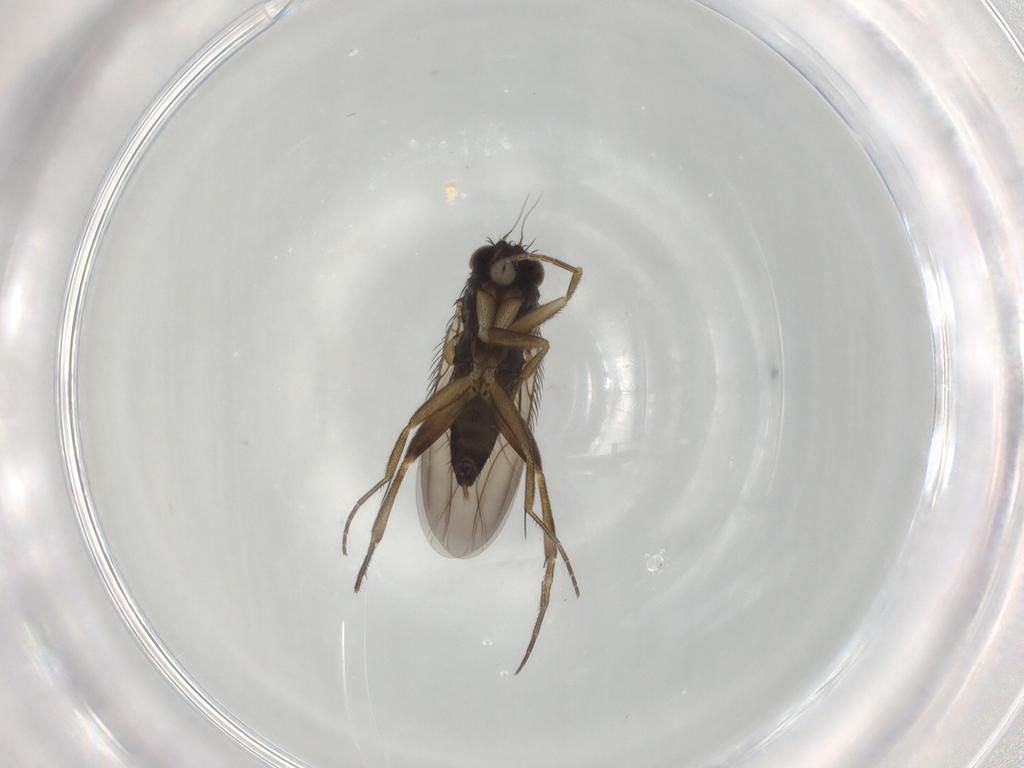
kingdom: Animalia
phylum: Arthropoda
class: Insecta
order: Diptera
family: Phoridae
